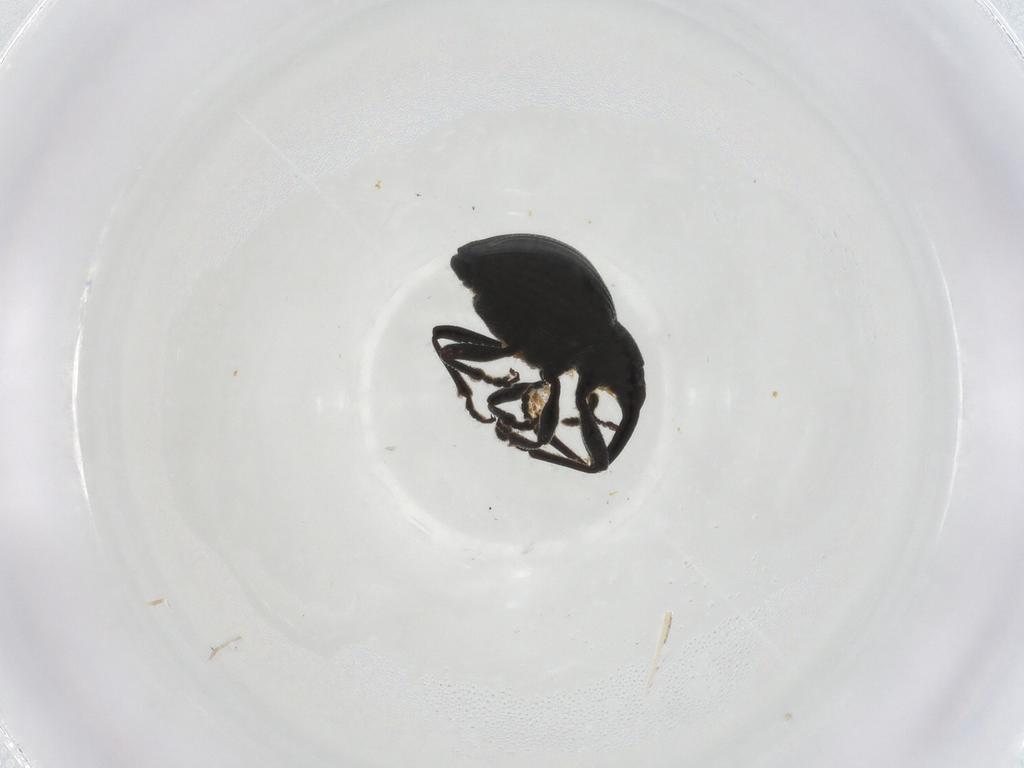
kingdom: Animalia
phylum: Arthropoda
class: Insecta
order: Coleoptera
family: Brentidae
